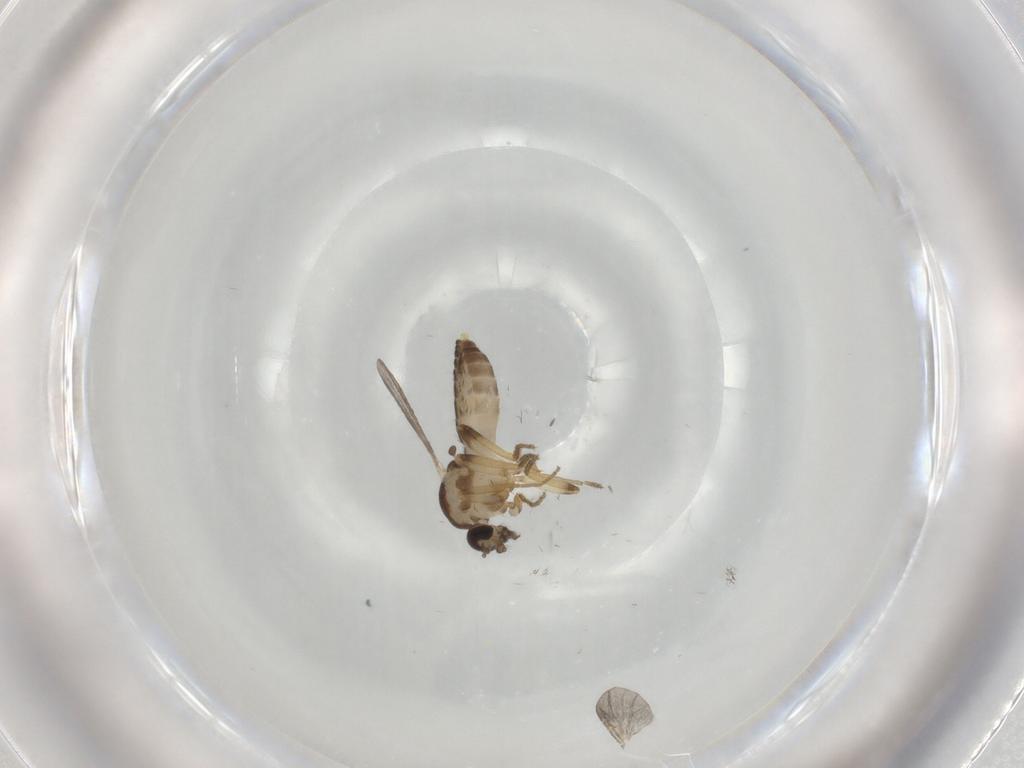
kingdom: Animalia
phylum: Arthropoda
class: Insecta
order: Diptera
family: Ceratopogonidae
